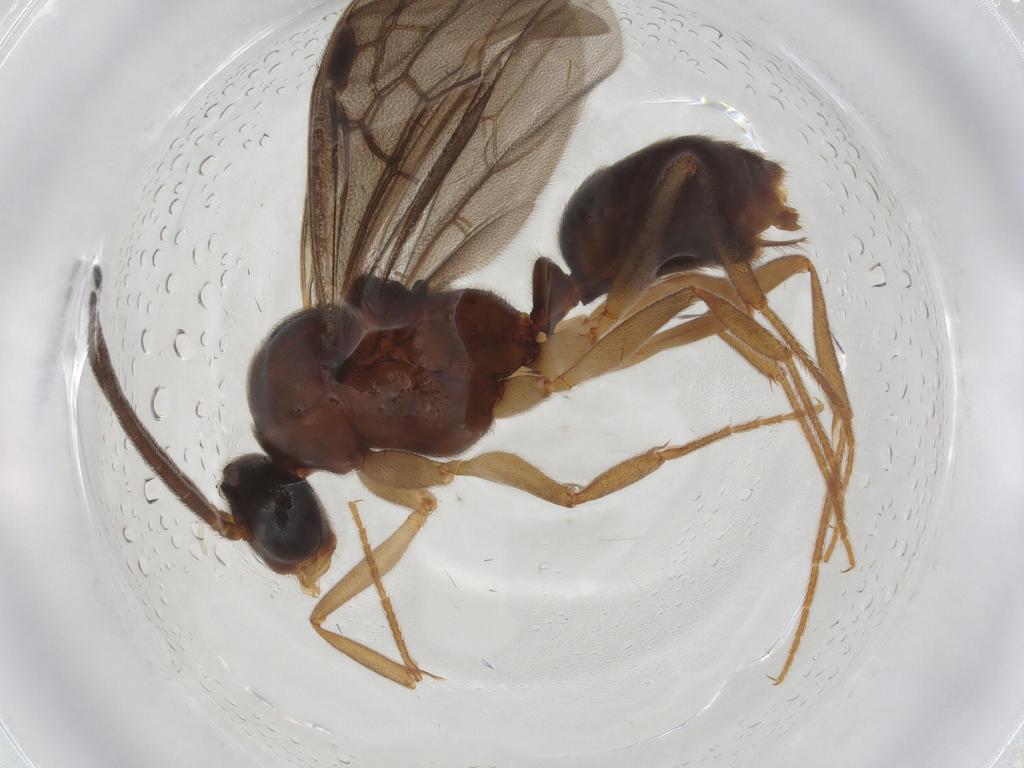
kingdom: Animalia
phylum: Arthropoda
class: Insecta
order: Hymenoptera
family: Formicidae
